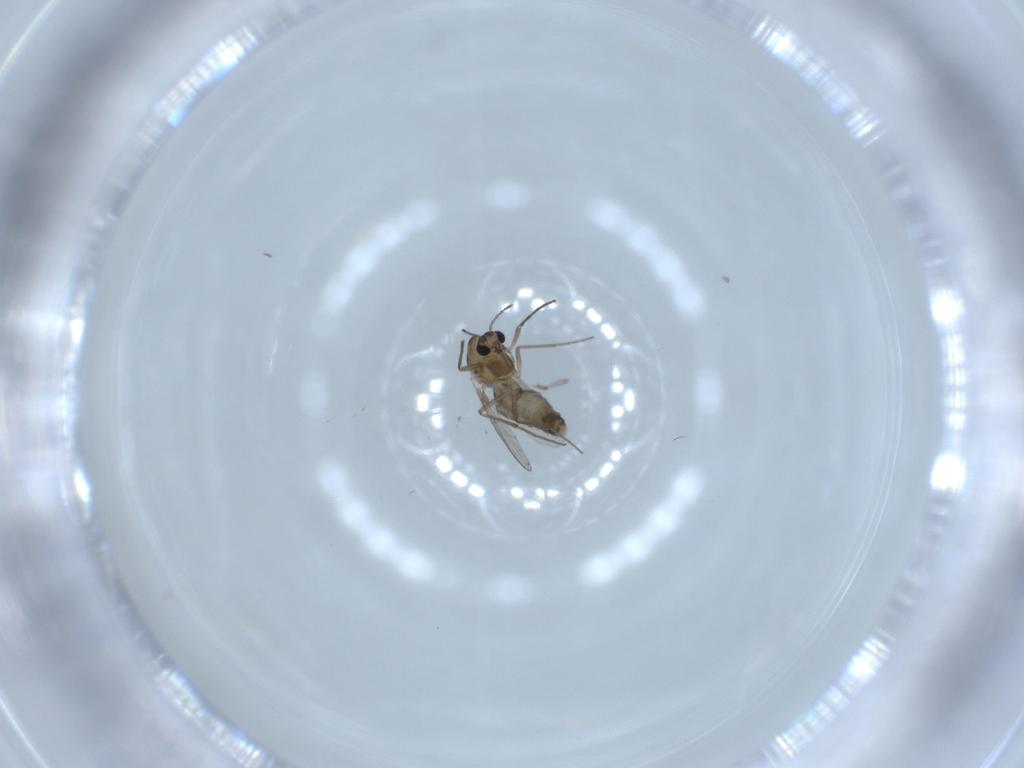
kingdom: Animalia
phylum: Arthropoda
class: Insecta
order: Diptera
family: Chironomidae
